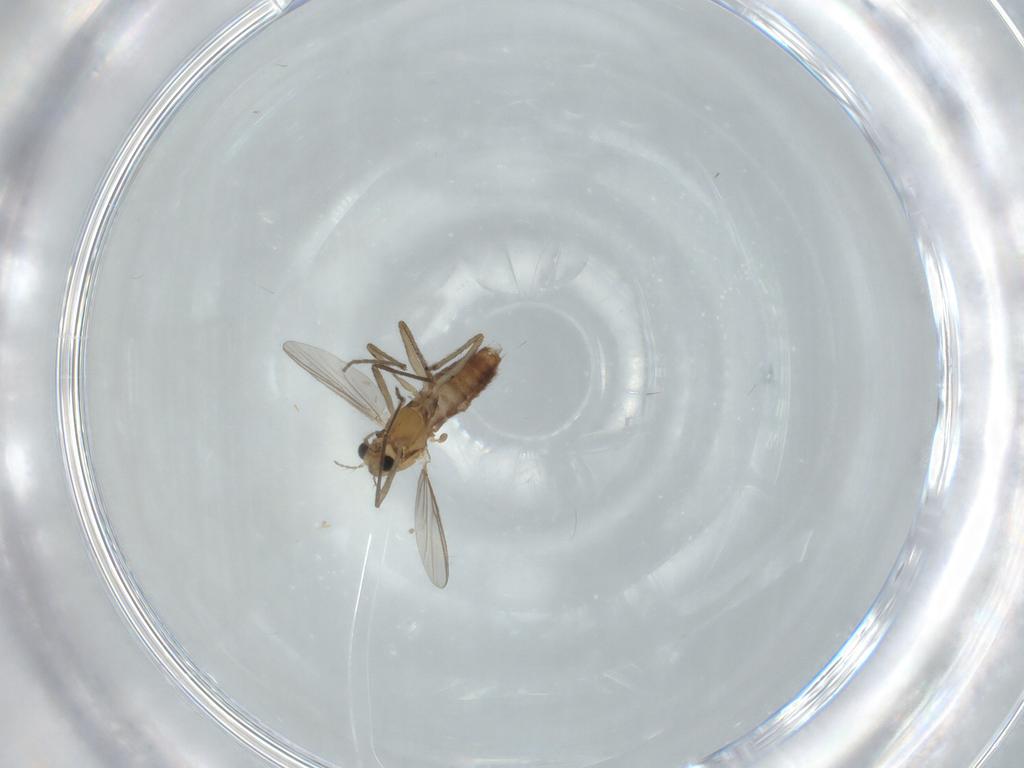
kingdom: Animalia
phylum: Arthropoda
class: Insecta
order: Diptera
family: Chironomidae
